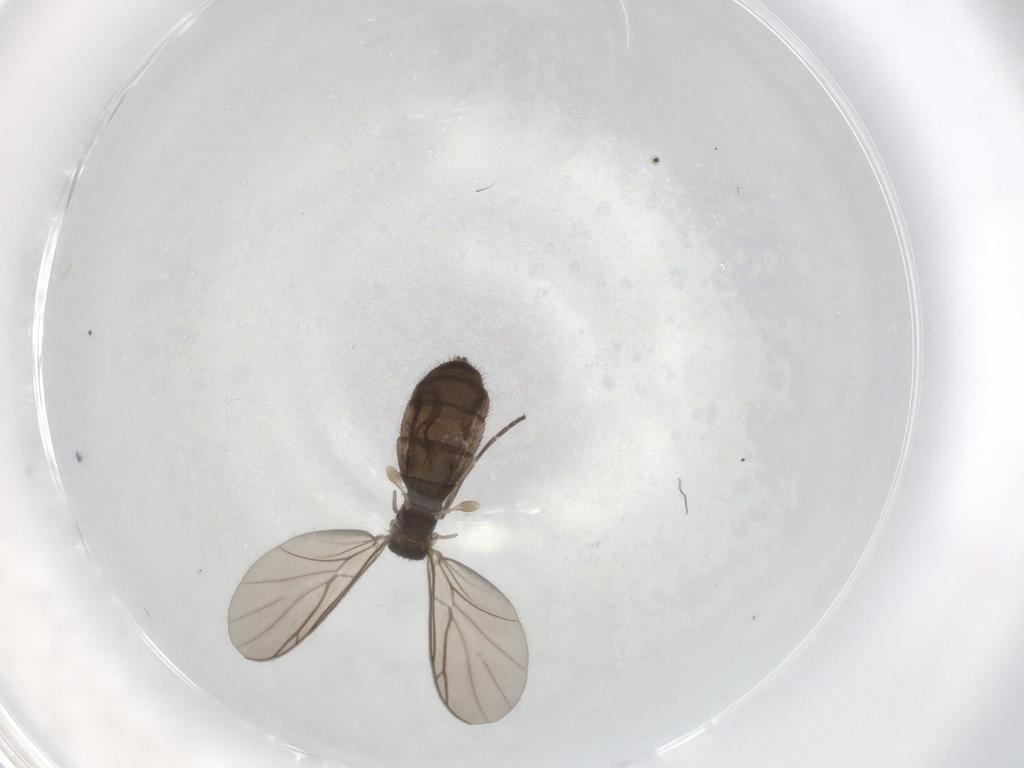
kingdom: Animalia
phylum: Arthropoda
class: Insecta
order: Diptera
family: Keroplatidae
